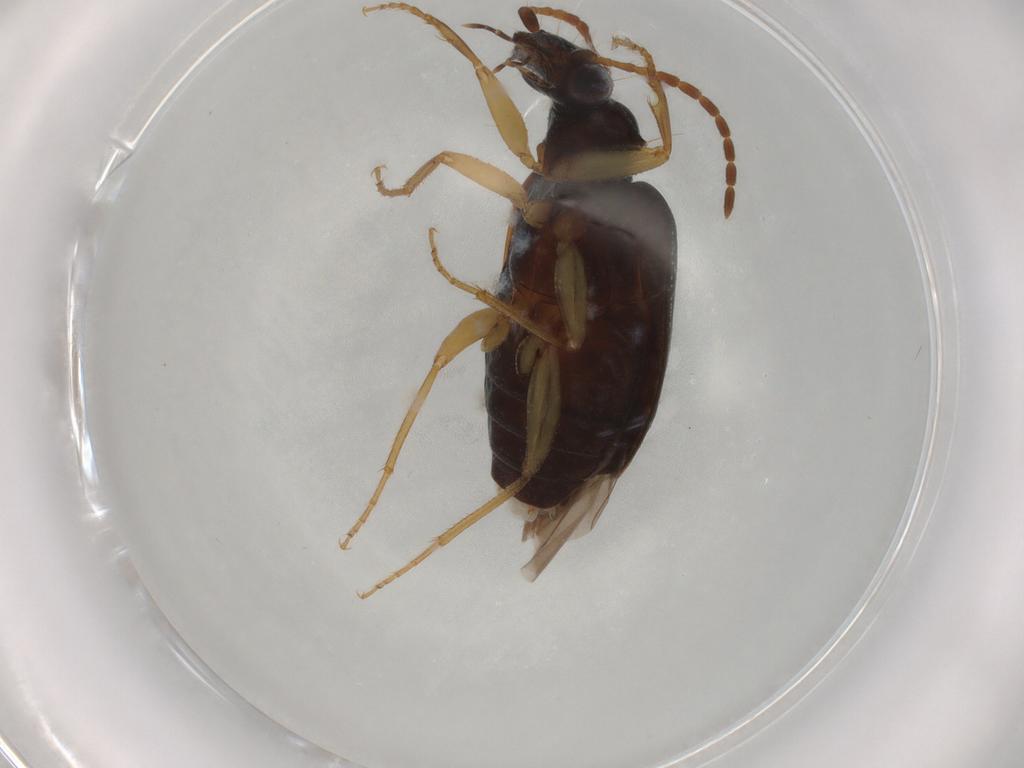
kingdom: Animalia
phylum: Arthropoda
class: Insecta
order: Coleoptera
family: Carabidae
